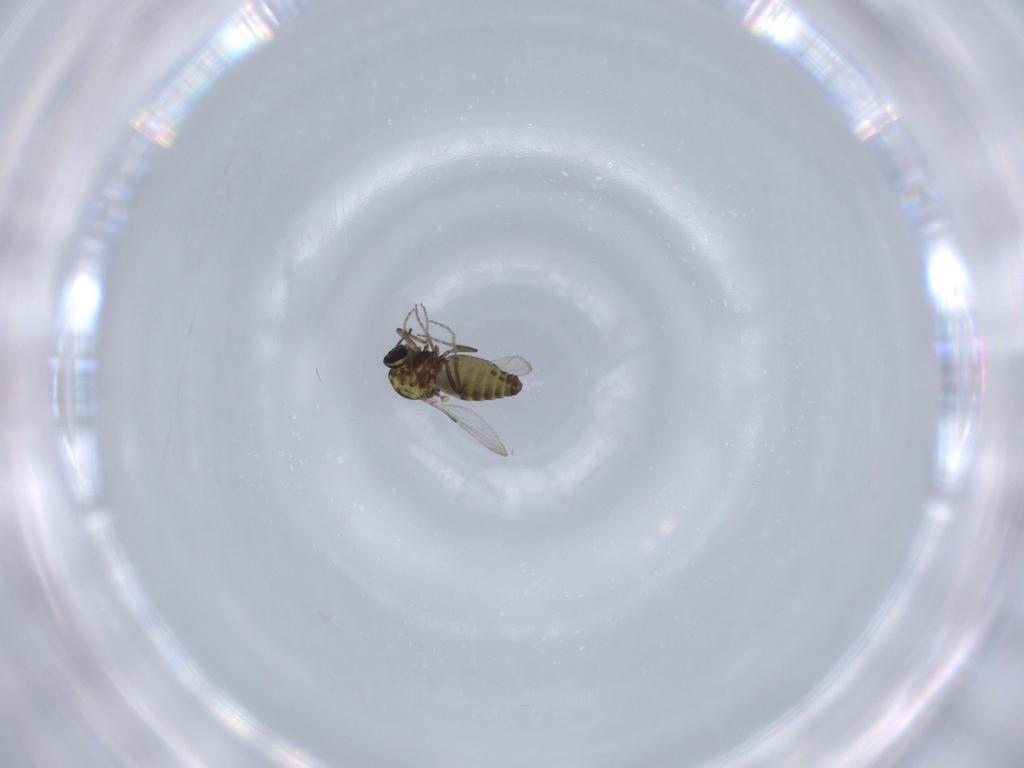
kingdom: Animalia
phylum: Arthropoda
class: Insecta
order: Diptera
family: Ceratopogonidae
